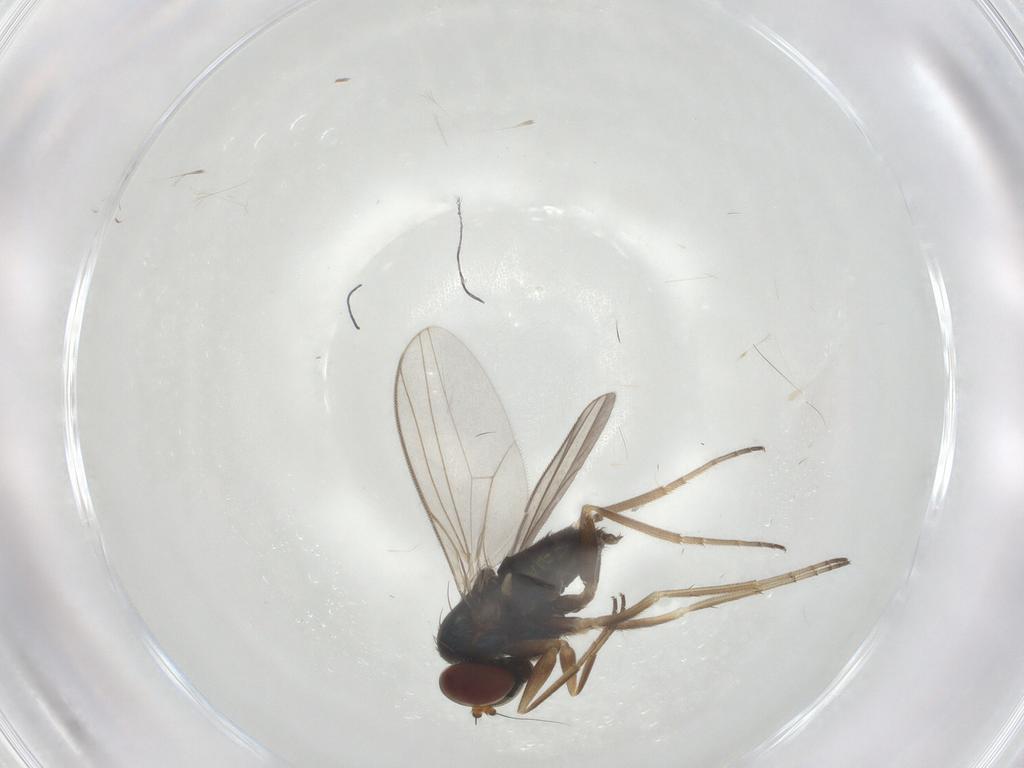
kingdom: Animalia
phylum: Arthropoda
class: Insecta
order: Diptera
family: Dolichopodidae
